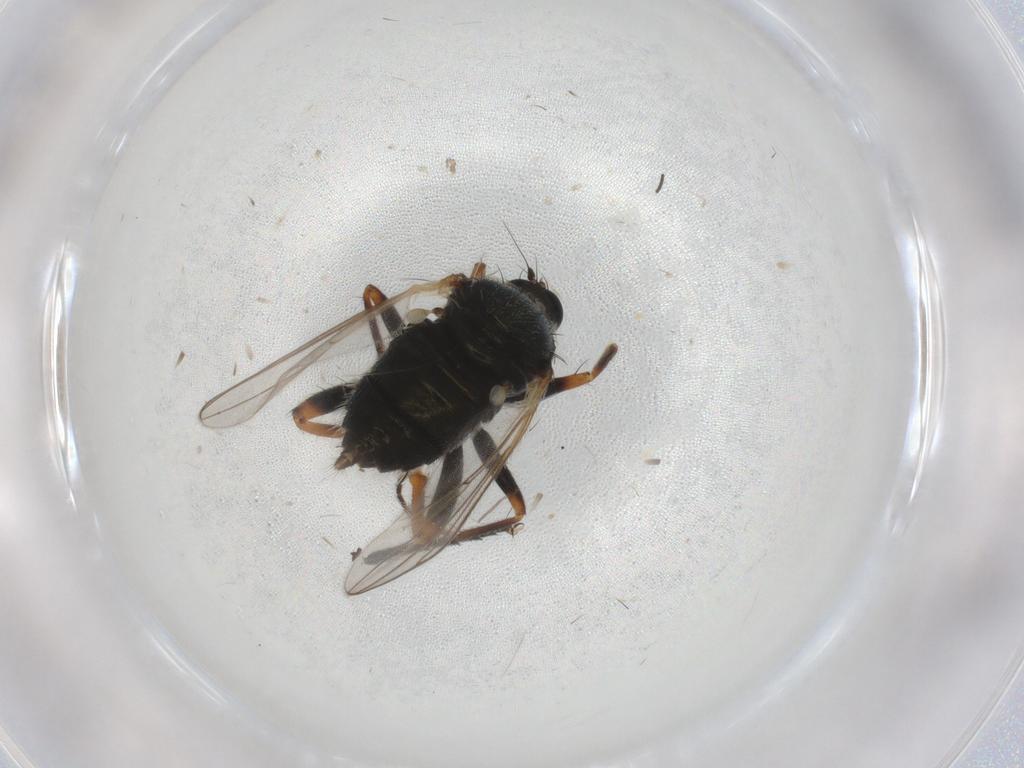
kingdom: Animalia
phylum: Arthropoda
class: Insecta
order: Diptera
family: Hybotidae
